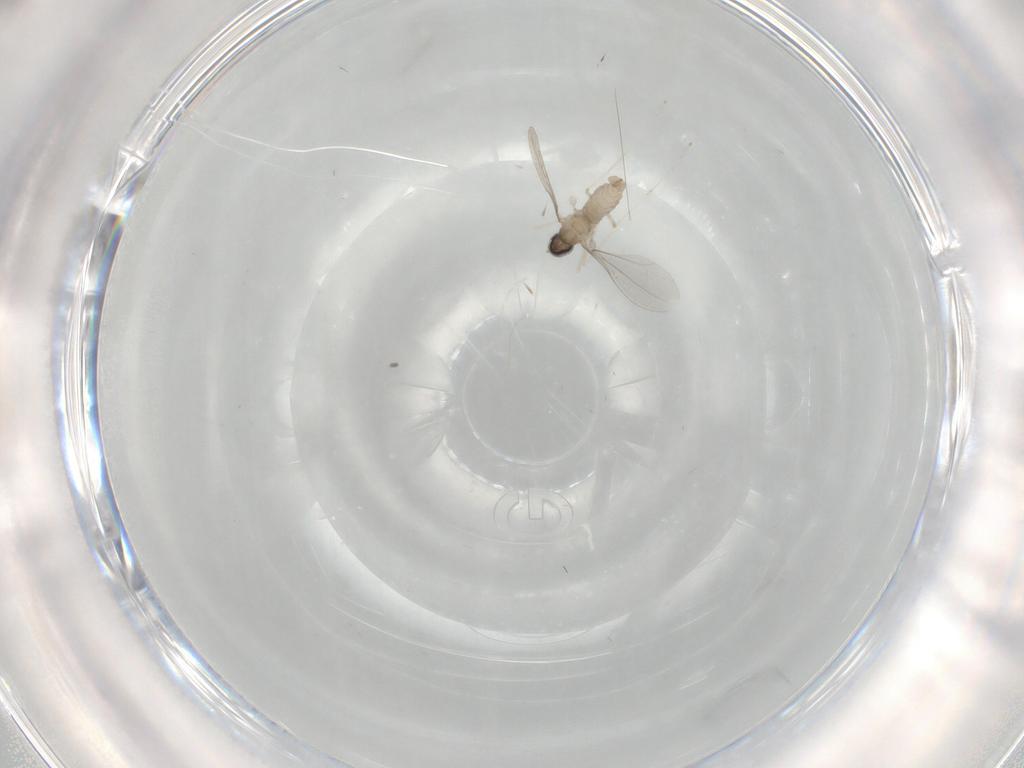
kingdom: Animalia
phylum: Arthropoda
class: Insecta
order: Diptera
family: Cecidomyiidae
